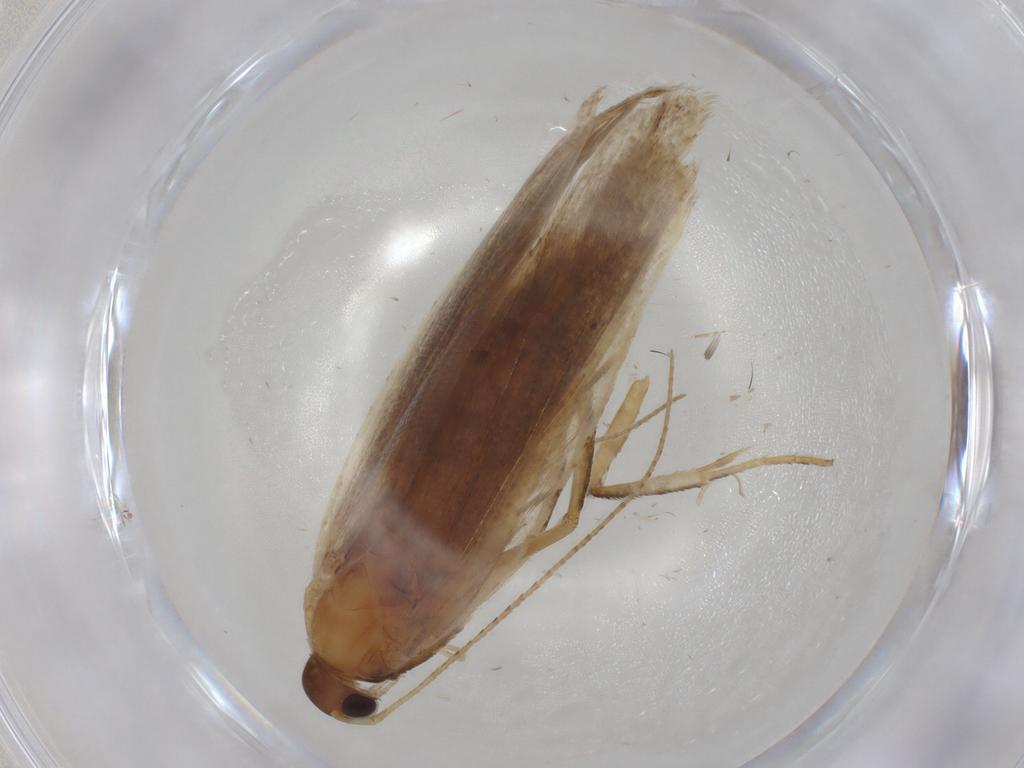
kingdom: Animalia
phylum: Arthropoda
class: Insecta
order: Lepidoptera
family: Gelechiidae
